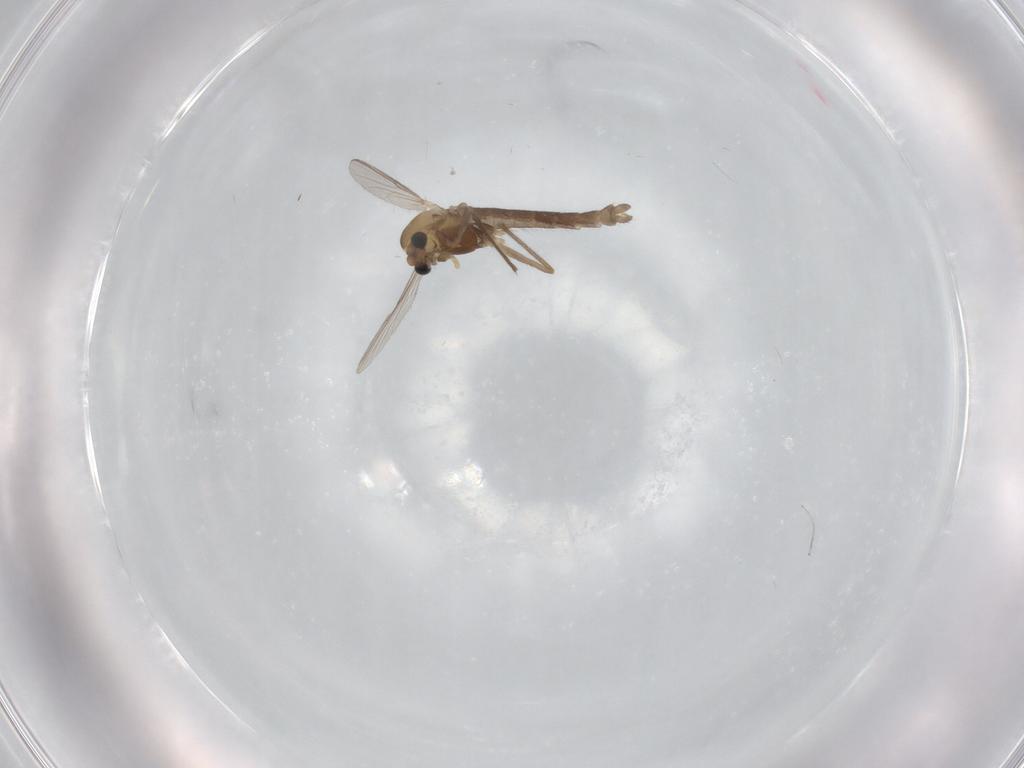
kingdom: Animalia
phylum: Arthropoda
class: Insecta
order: Diptera
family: Chironomidae
